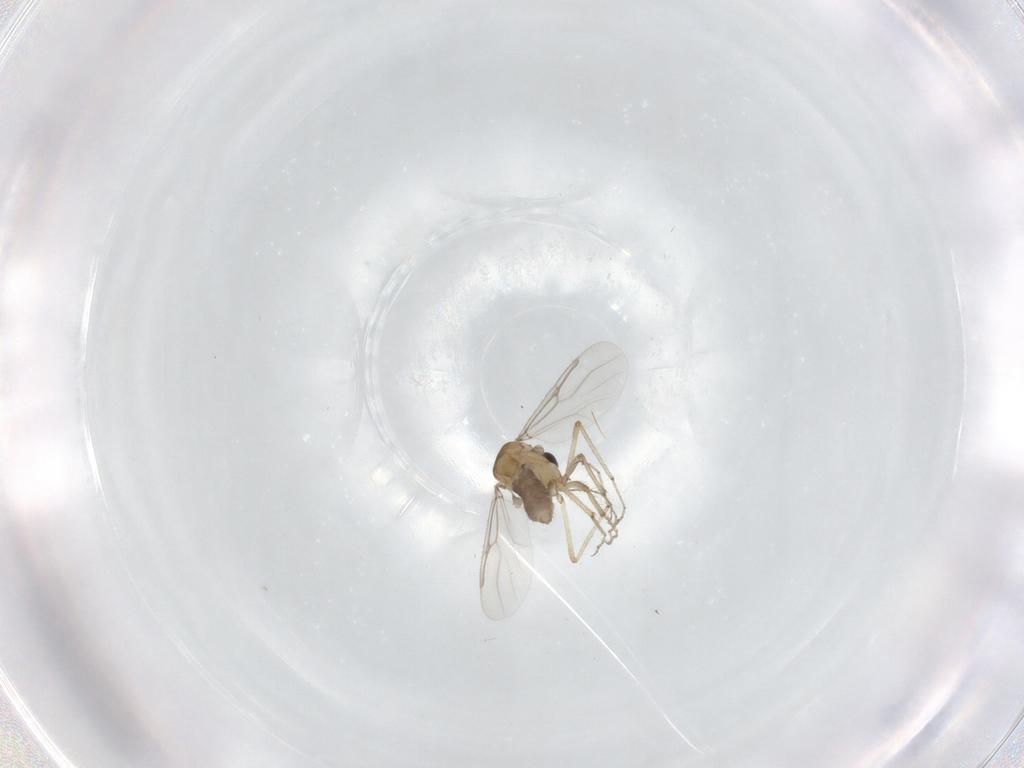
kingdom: Animalia
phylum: Arthropoda
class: Insecta
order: Diptera
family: Ceratopogonidae
